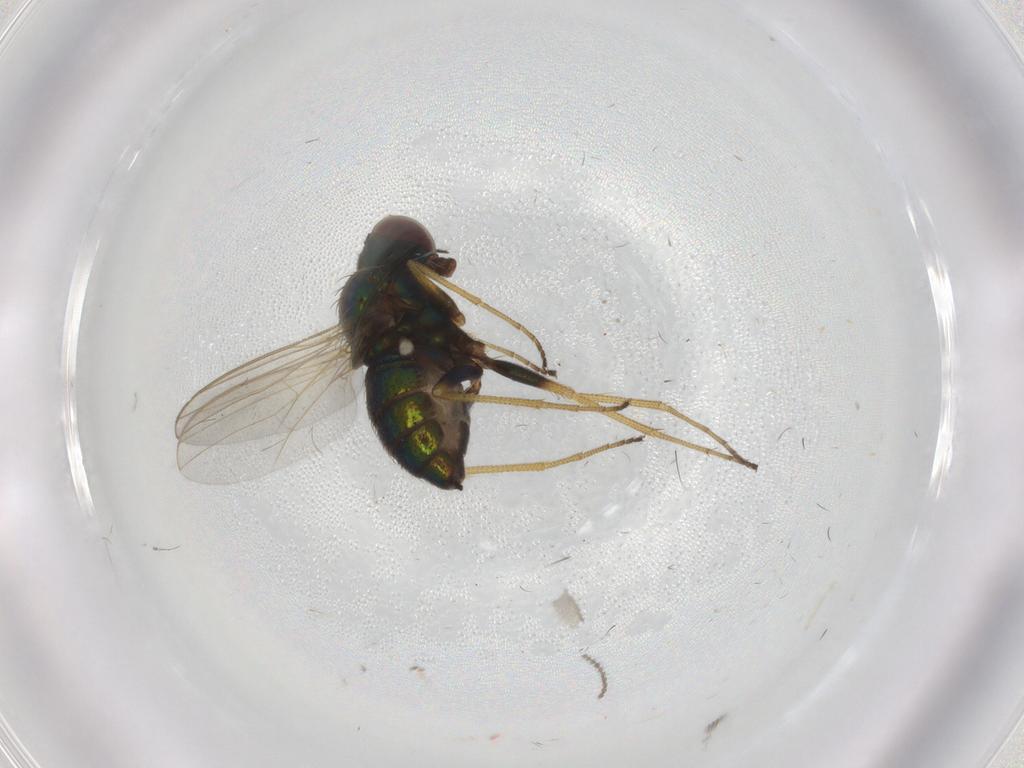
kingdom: Animalia
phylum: Arthropoda
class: Insecta
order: Diptera
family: Dolichopodidae
